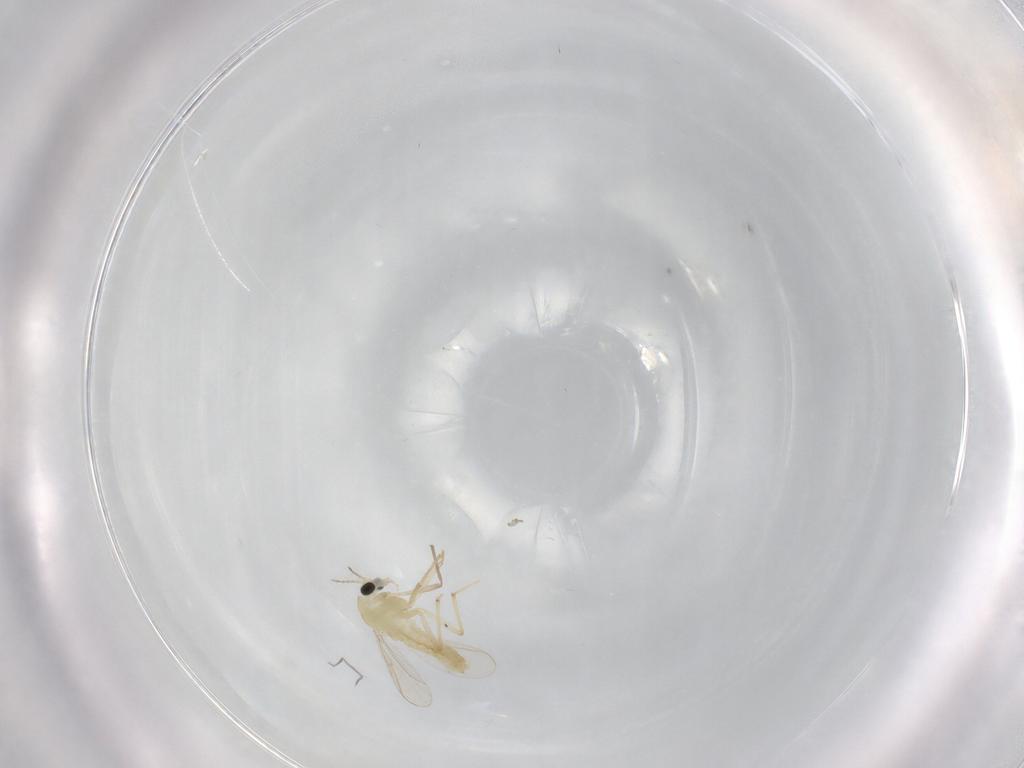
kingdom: Animalia
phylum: Arthropoda
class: Insecta
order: Diptera
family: Chironomidae
